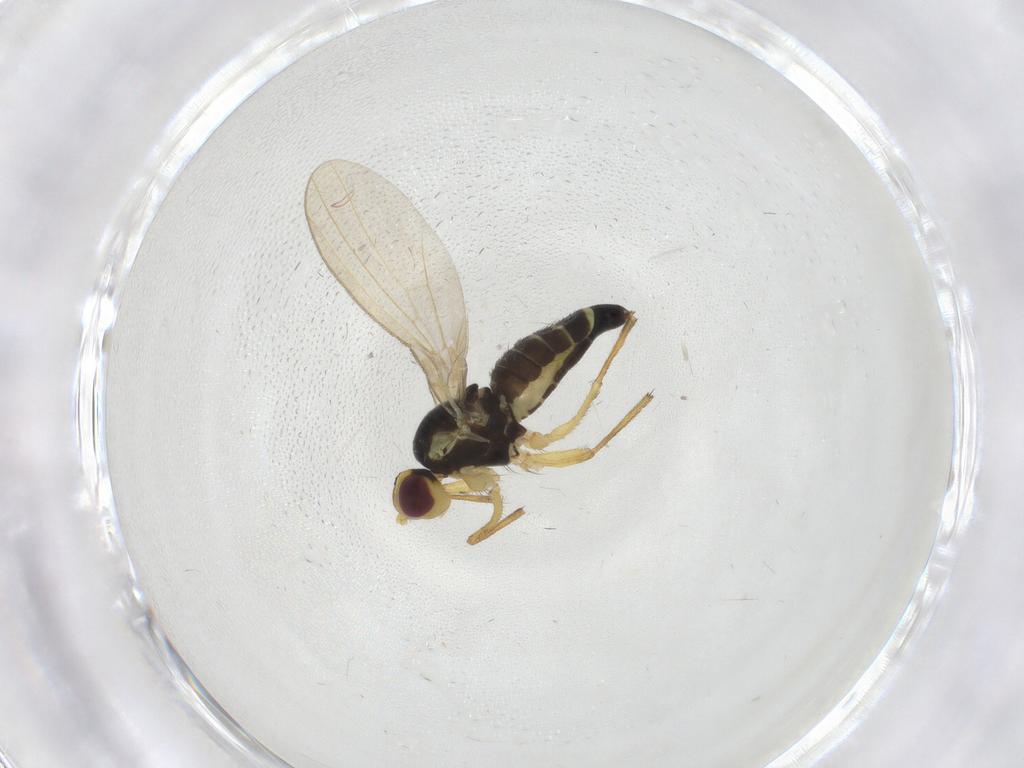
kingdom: Animalia
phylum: Arthropoda
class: Insecta
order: Diptera
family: Agromyzidae
